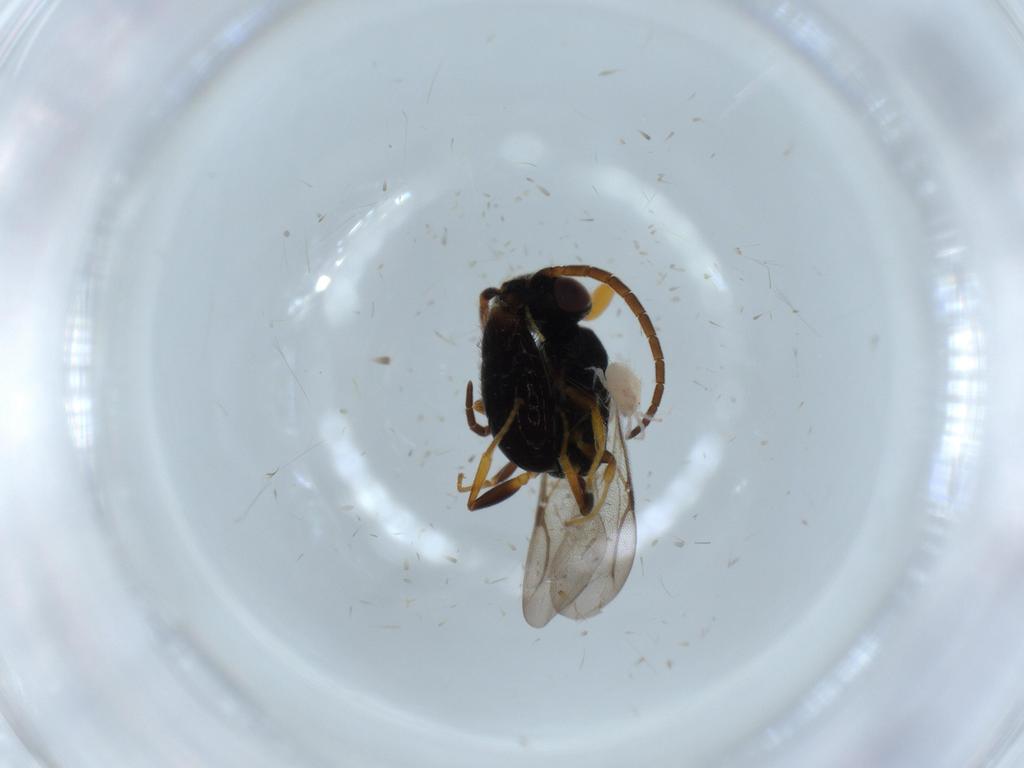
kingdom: Animalia
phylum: Arthropoda
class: Insecta
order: Hymenoptera
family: Bethylidae
